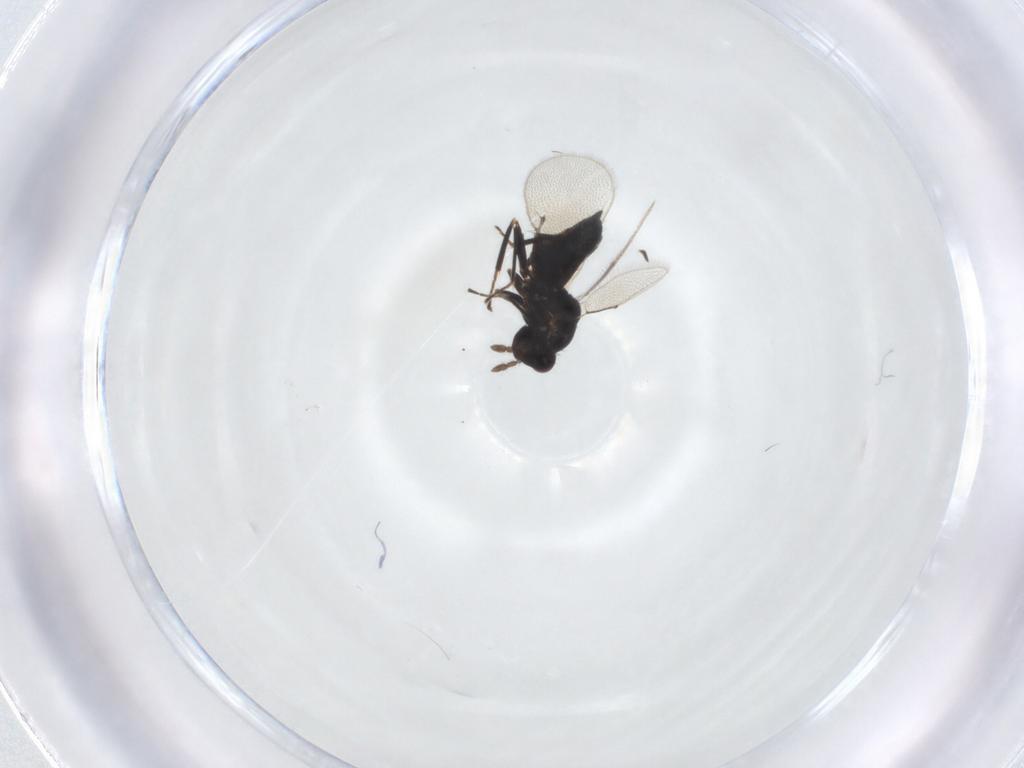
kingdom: Animalia
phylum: Arthropoda
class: Insecta
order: Hymenoptera
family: Eulophidae
